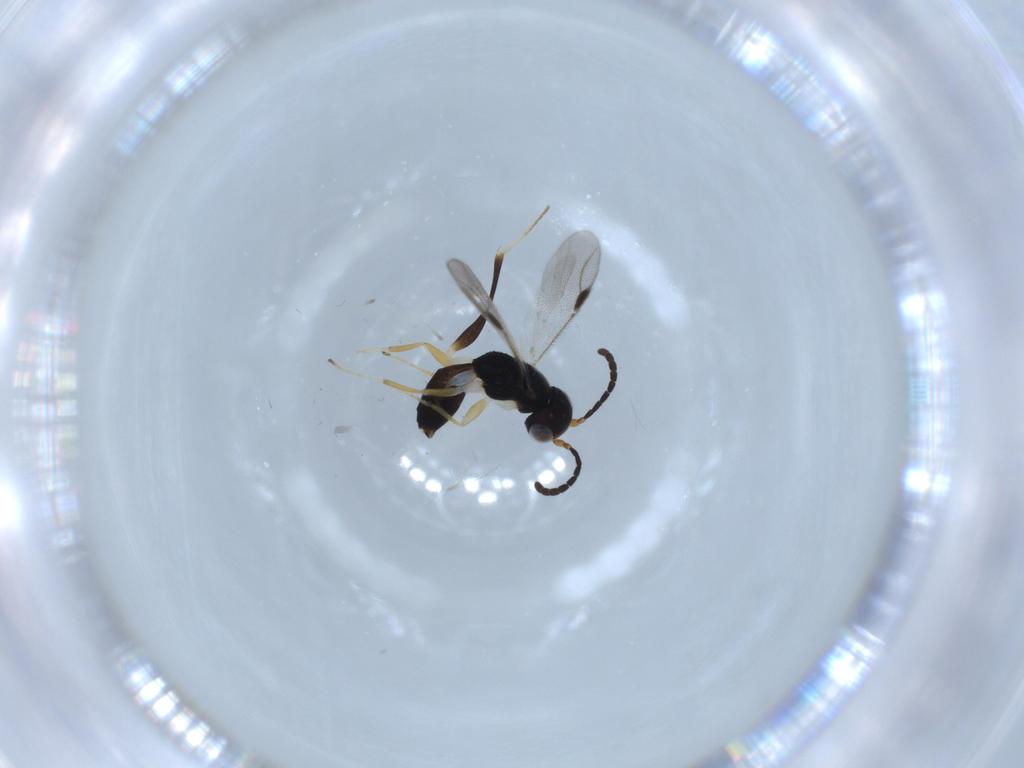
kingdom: Animalia
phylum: Arthropoda
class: Insecta
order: Hymenoptera
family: Dryinidae
